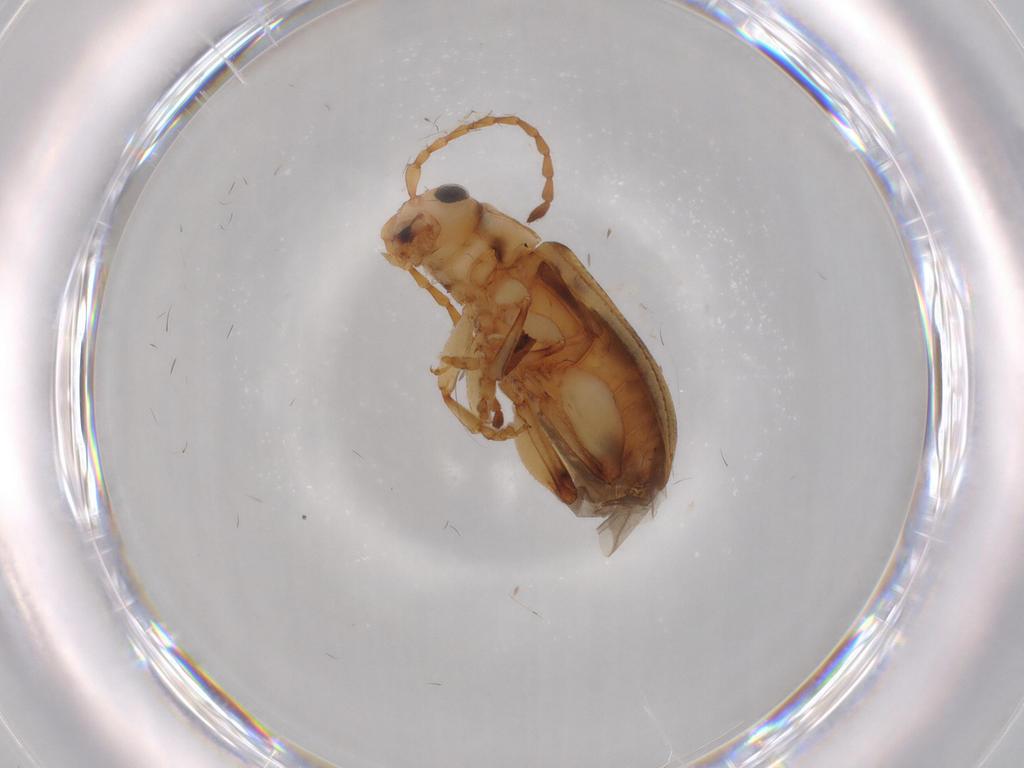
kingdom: Animalia
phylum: Arthropoda
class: Insecta
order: Coleoptera
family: Chrysomelidae
